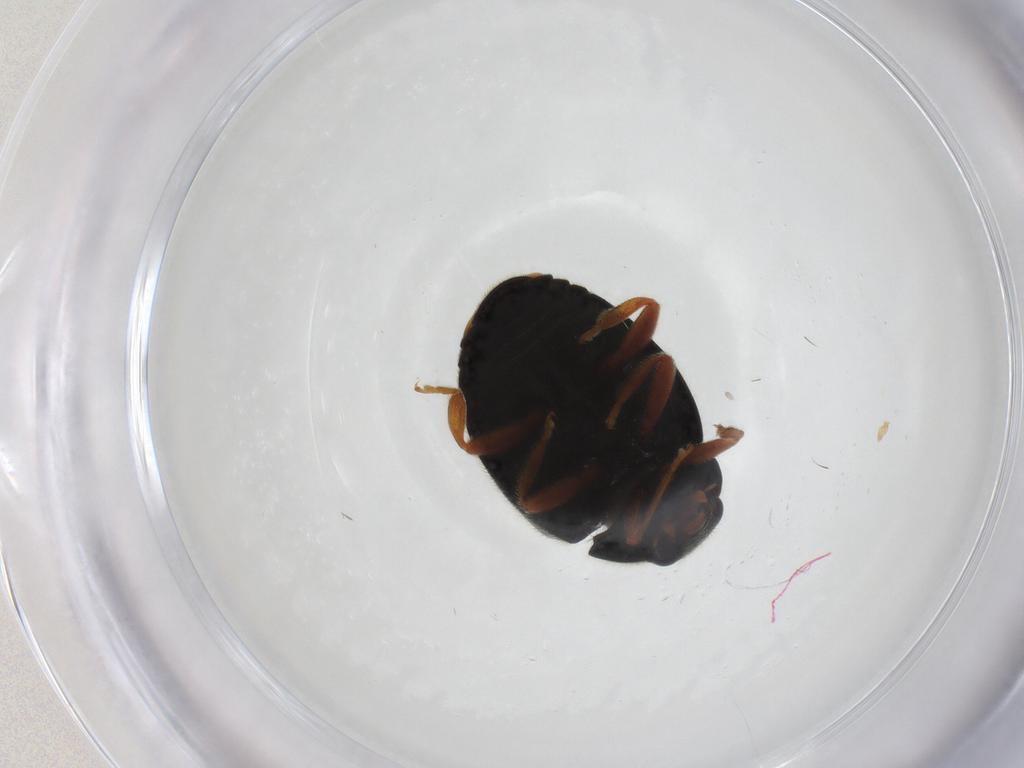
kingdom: Animalia
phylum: Arthropoda
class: Insecta
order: Coleoptera
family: Coccinellidae
